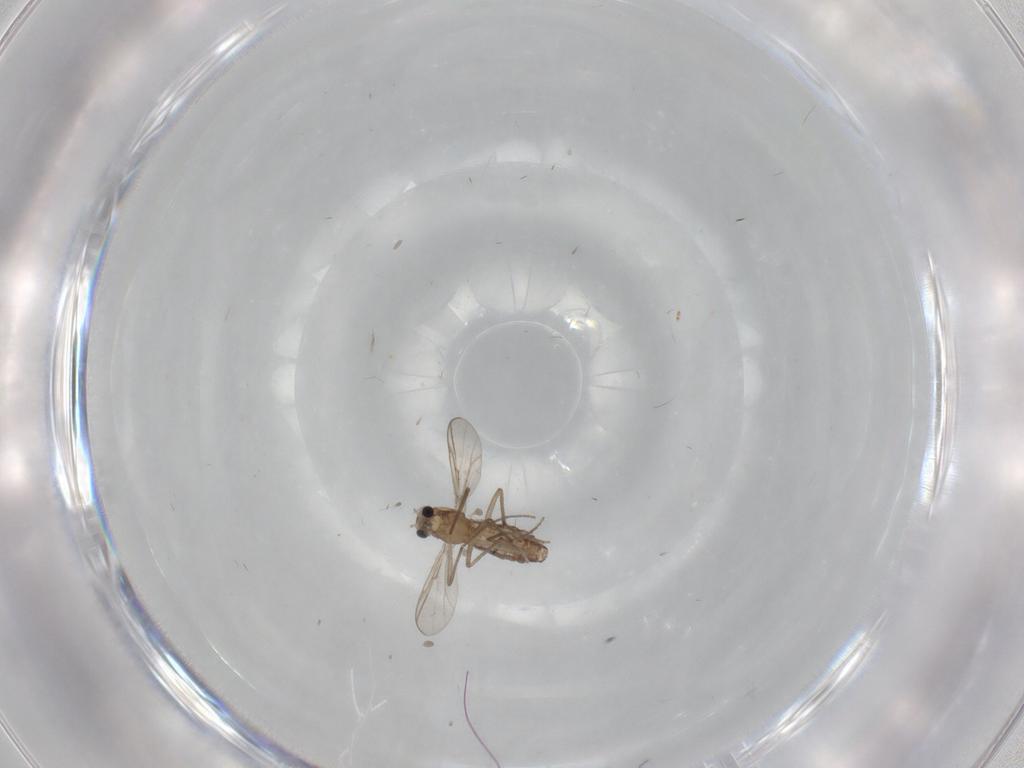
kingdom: Animalia
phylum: Arthropoda
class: Insecta
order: Diptera
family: Chironomidae
